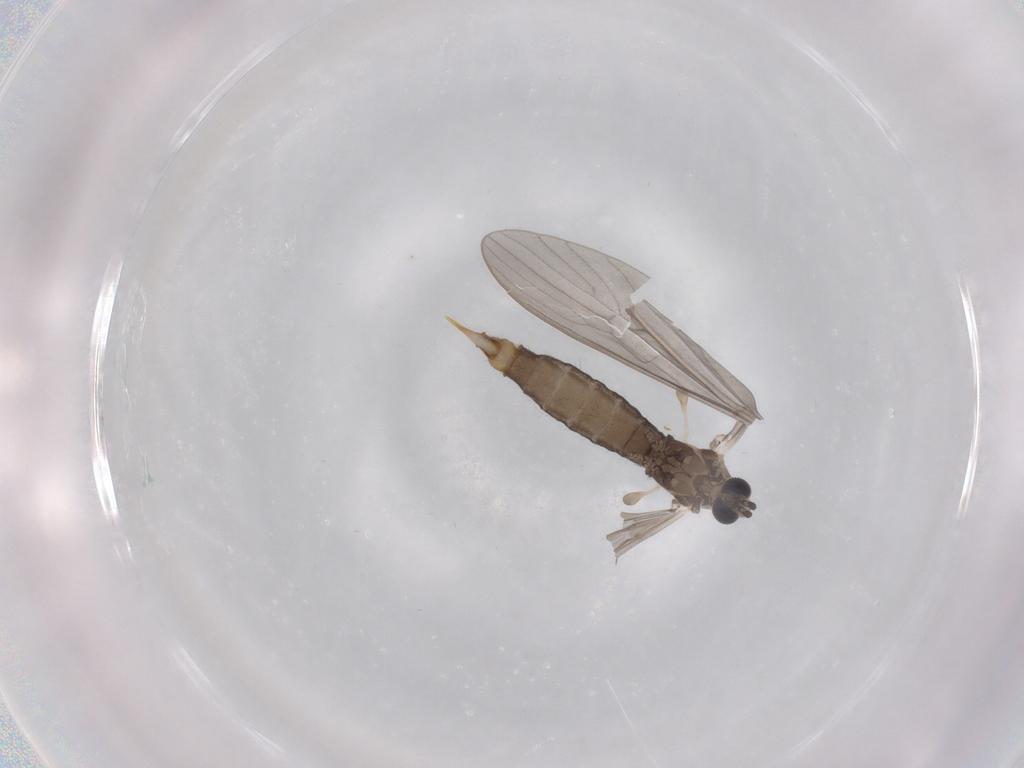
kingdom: Animalia
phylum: Arthropoda
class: Insecta
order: Diptera
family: Limoniidae
